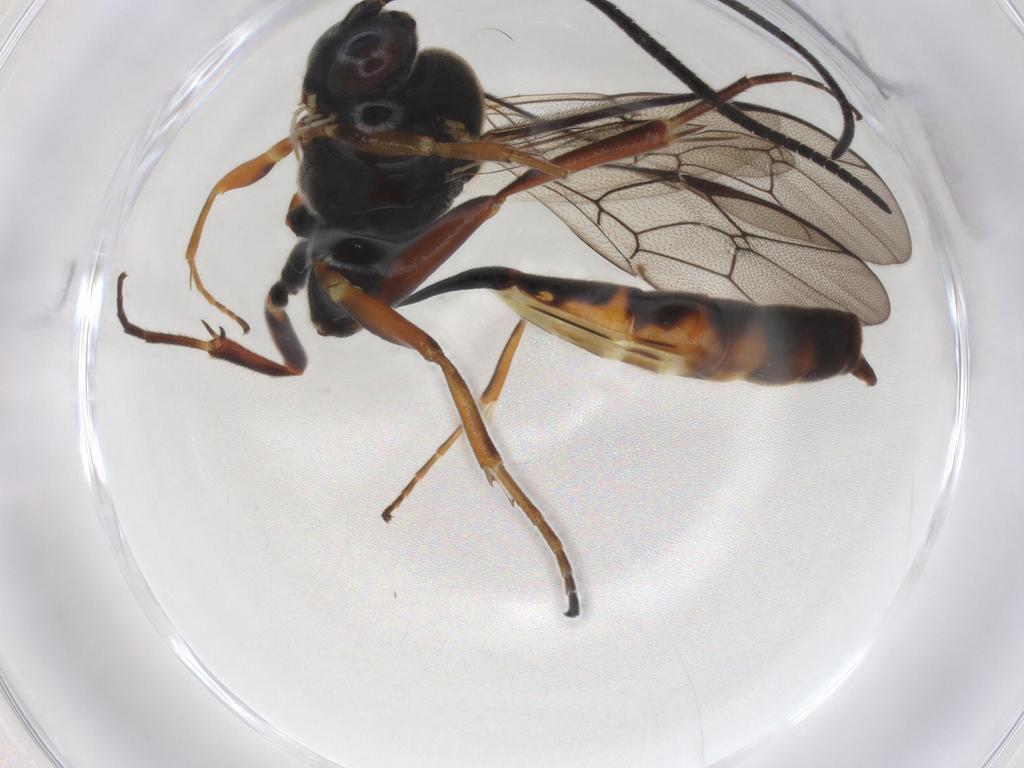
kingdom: Animalia
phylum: Arthropoda
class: Insecta
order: Hymenoptera
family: Ichneumonidae
